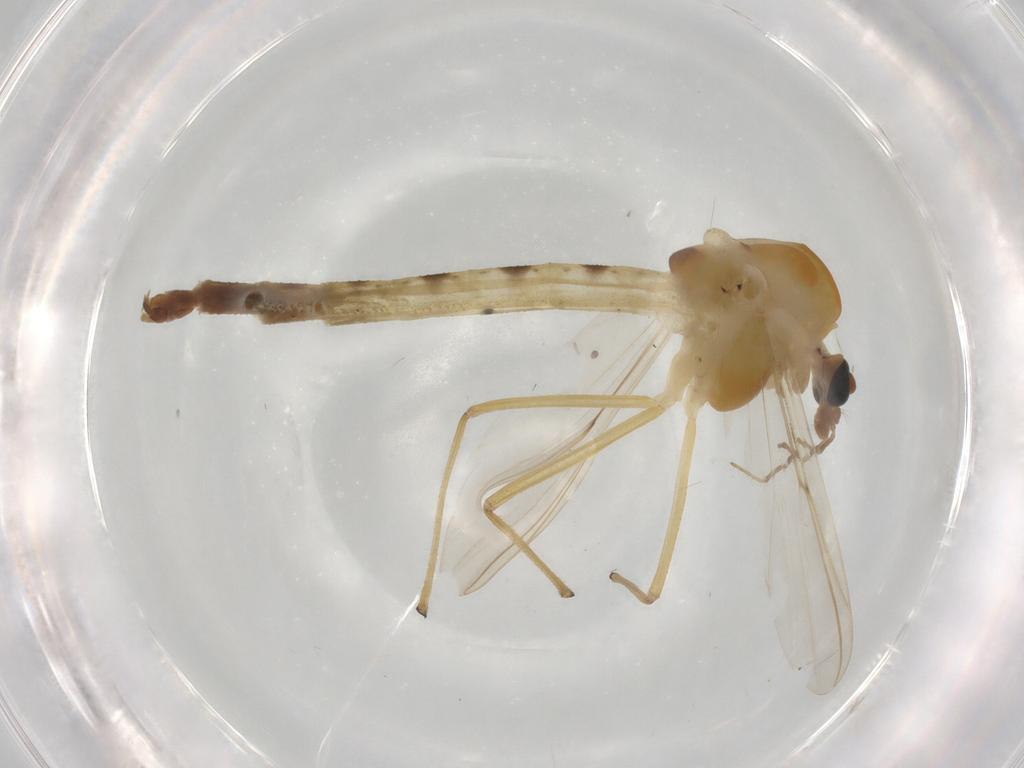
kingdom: Animalia
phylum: Arthropoda
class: Insecta
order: Diptera
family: Chironomidae
